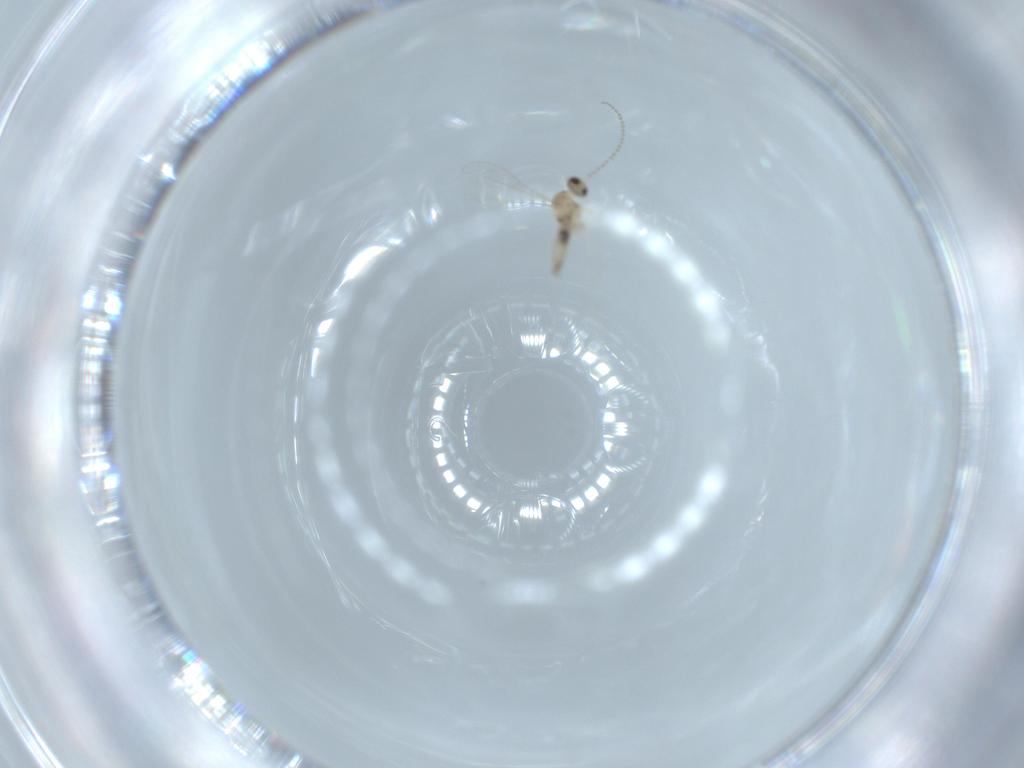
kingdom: Animalia
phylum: Arthropoda
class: Insecta
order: Diptera
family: Cecidomyiidae
